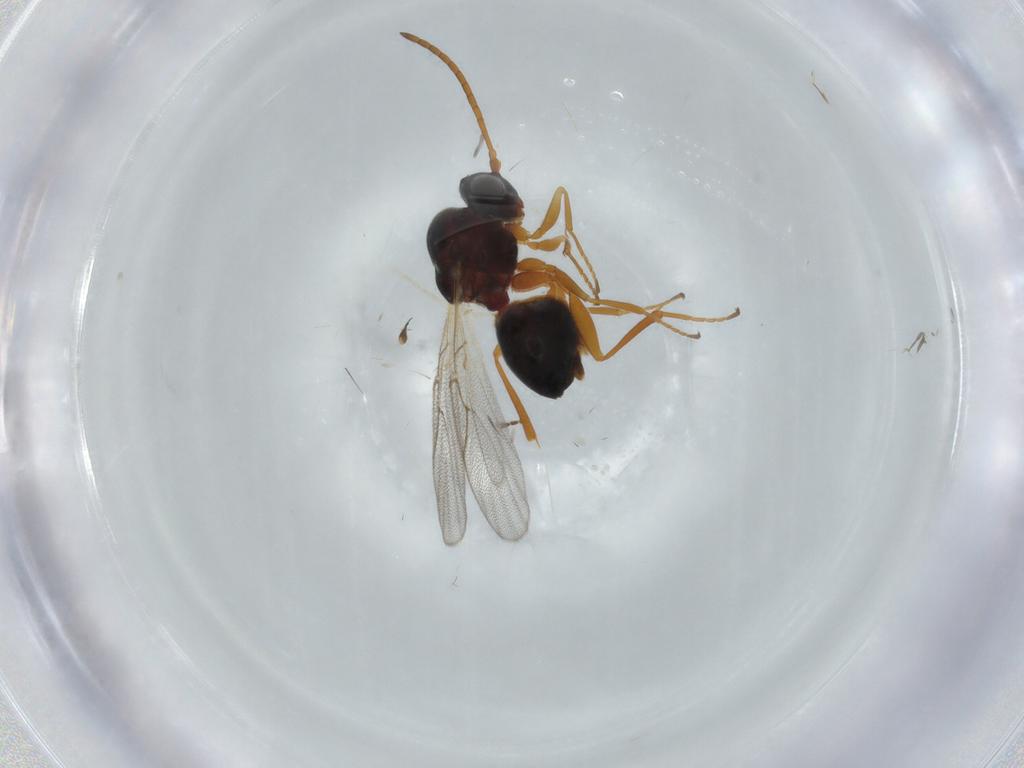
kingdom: Animalia
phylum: Arthropoda
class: Insecta
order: Hymenoptera
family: Figitidae
